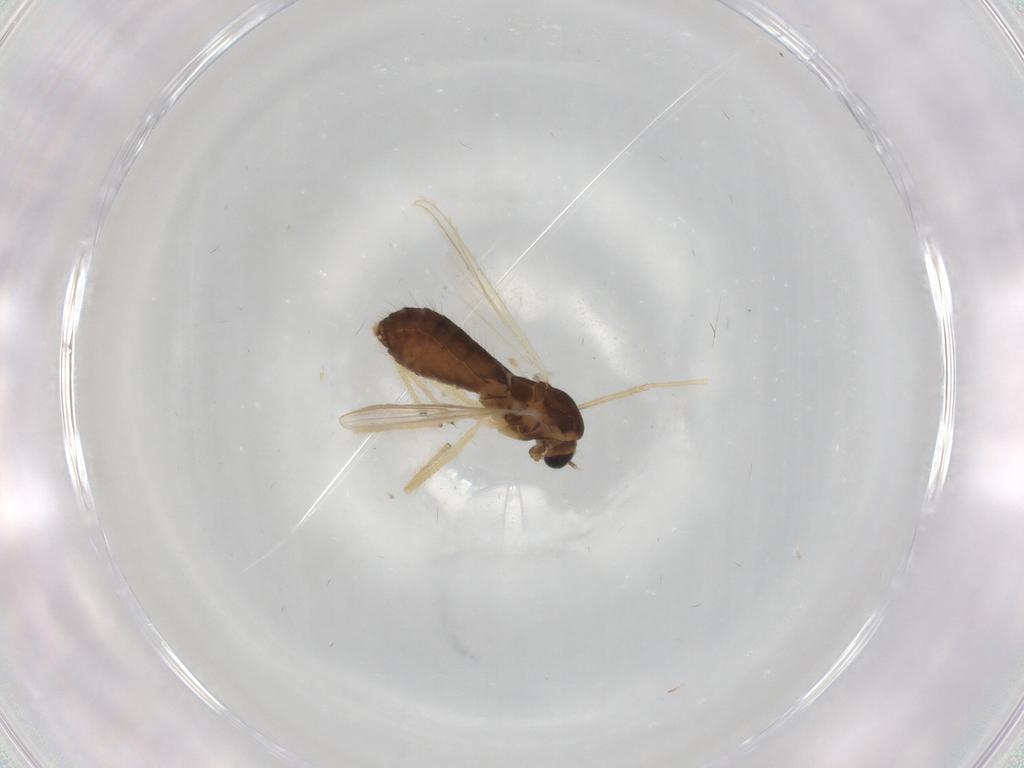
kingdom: Animalia
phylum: Arthropoda
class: Insecta
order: Diptera
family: Chironomidae
